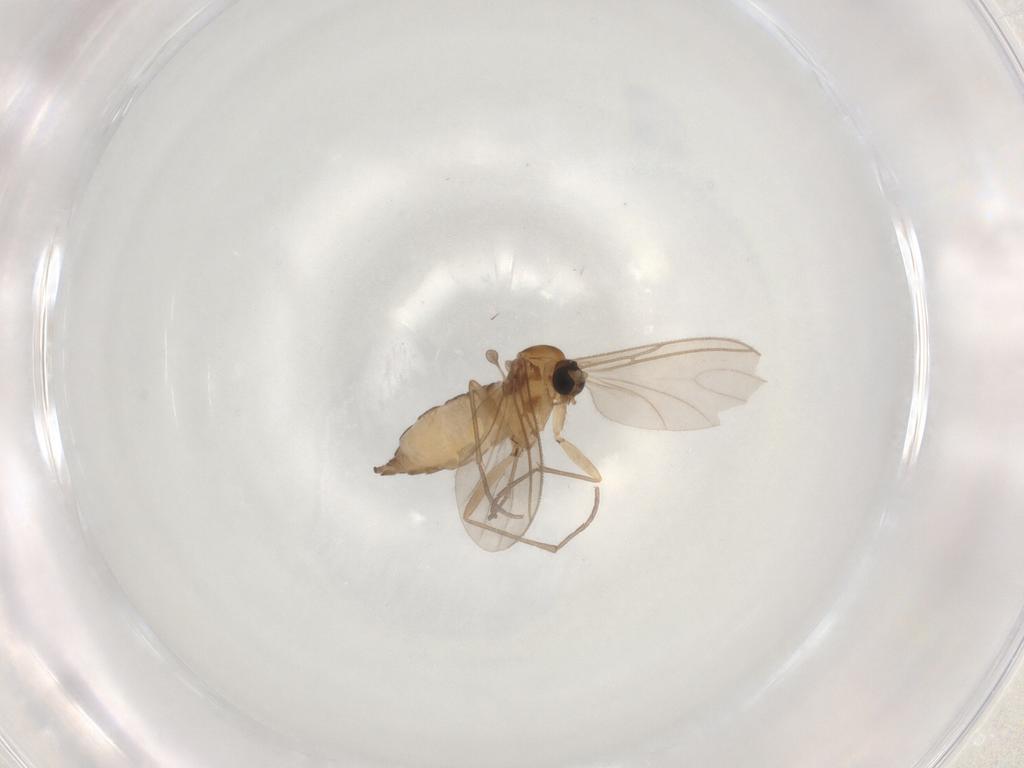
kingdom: Animalia
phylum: Arthropoda
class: Insecta
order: Diptera
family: Sciaridae
